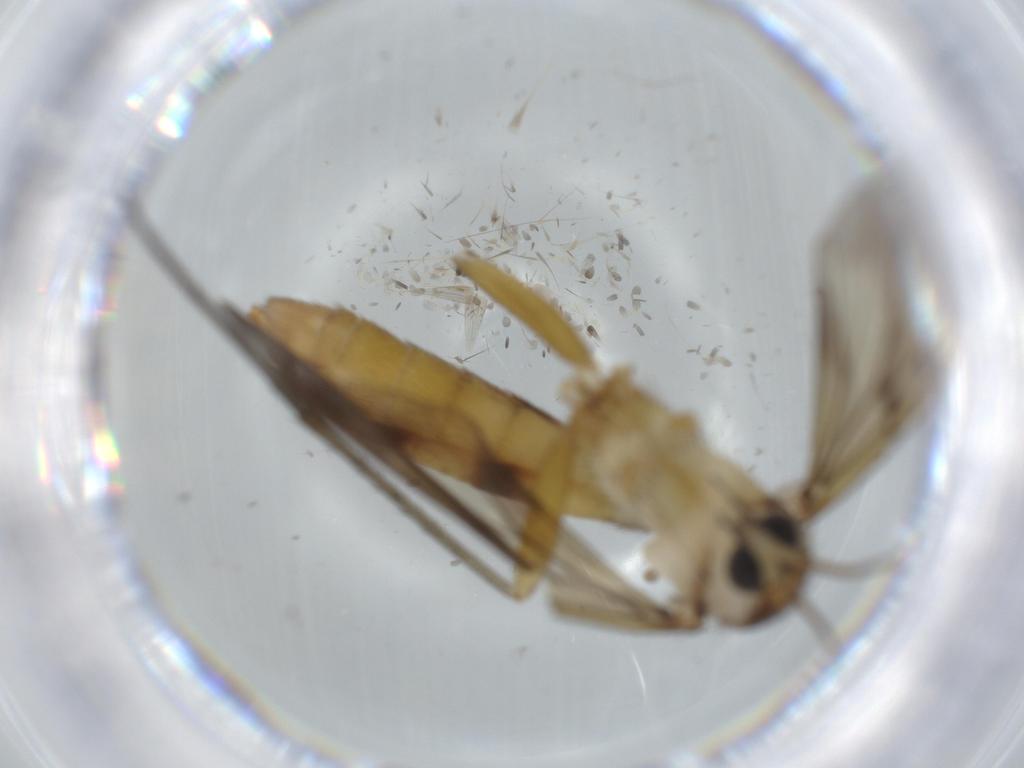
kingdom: Animalia
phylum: Arthropoda
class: Insecta
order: Diptera
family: Mycetophilidae
